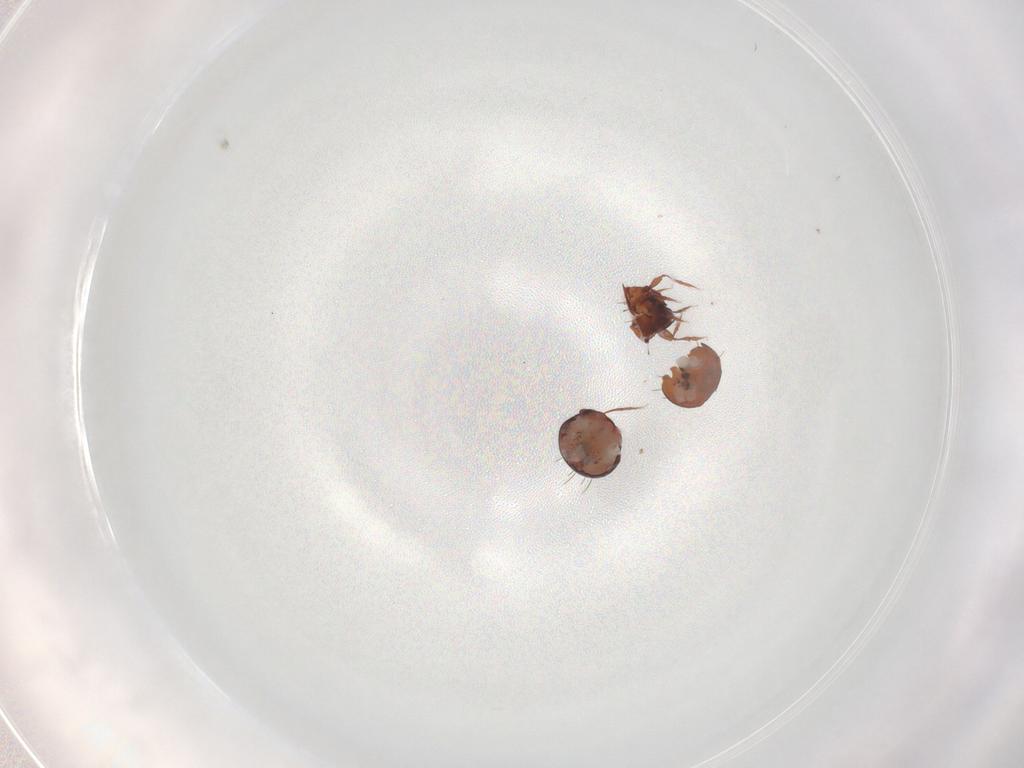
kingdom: Animalia
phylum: Arthropoda
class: Arachnida
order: Sarcoptiformes
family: Caloppiidae
